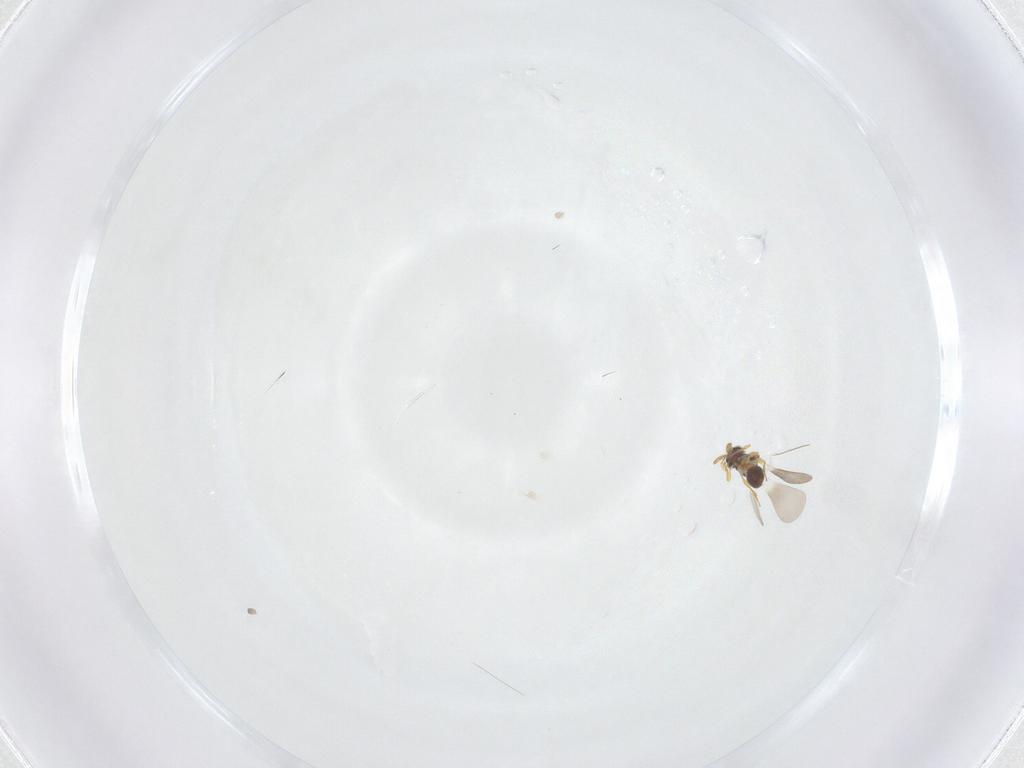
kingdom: Animalia
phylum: Arthropoda
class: Insecta
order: Hymenoptera
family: Platygastridae
